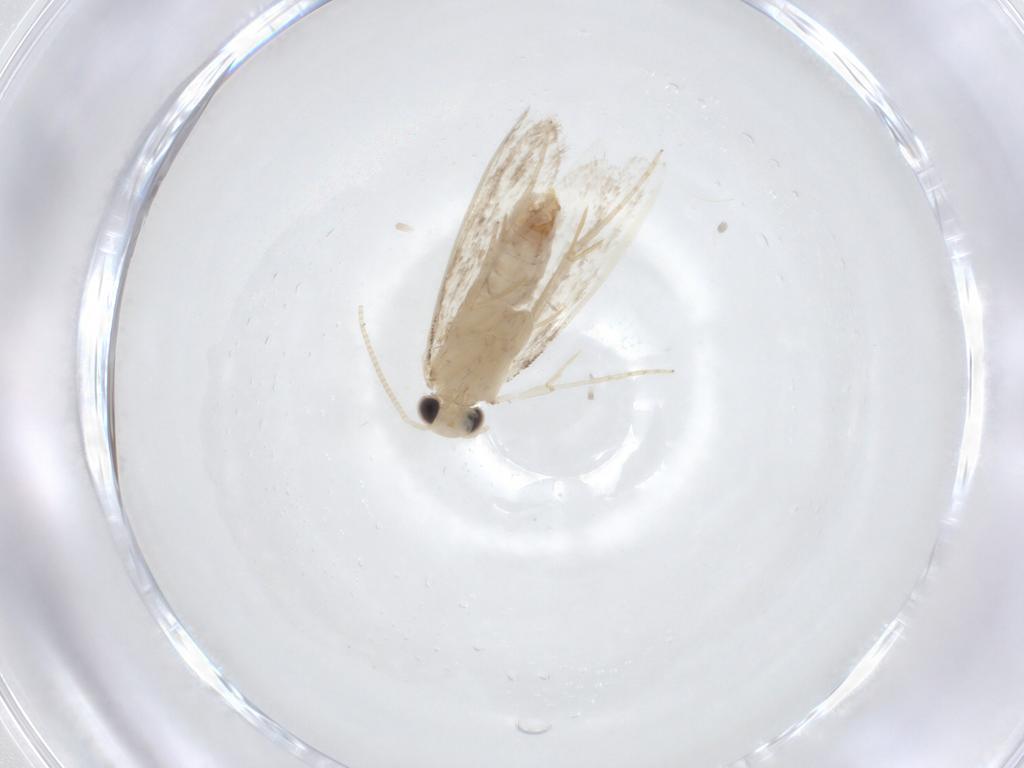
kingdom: Animalia
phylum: Arthropoda
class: Insecta
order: Lepidoptera
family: Dryadaulidae
